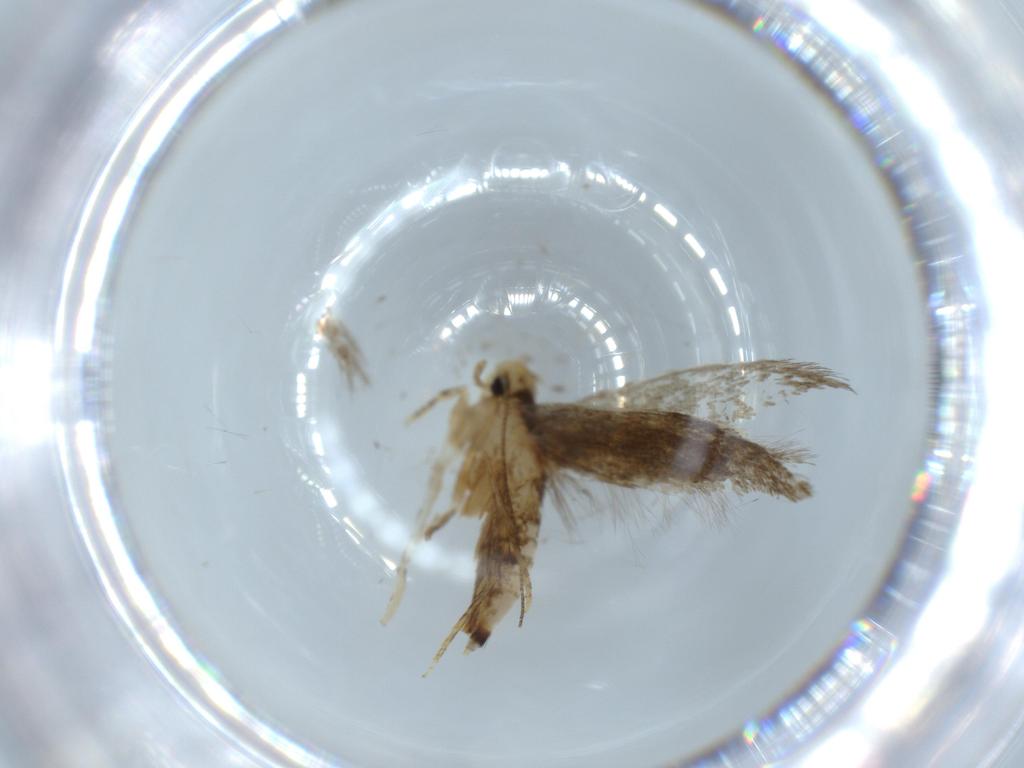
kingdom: Animalia
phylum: Arthropoda
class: Insecta
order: Lepidoptera
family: Tineidae
